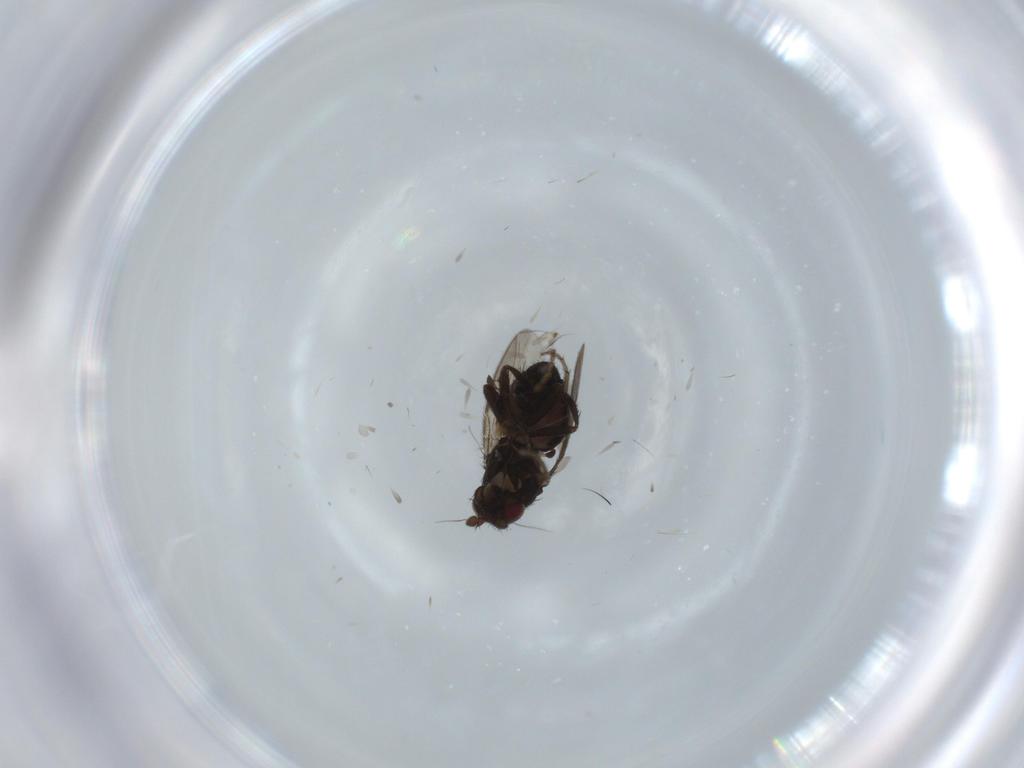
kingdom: Animalia
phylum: Arthropoda
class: Insecta
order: Diptera
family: Sphaeroceridae
